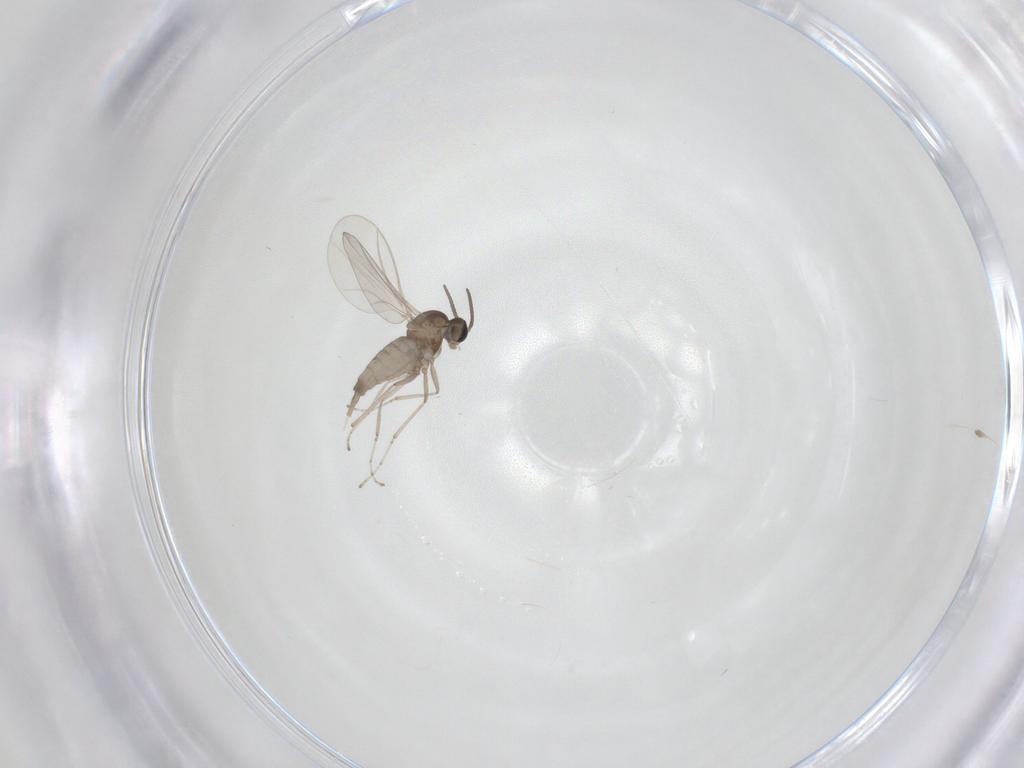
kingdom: Animalia
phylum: Arthropoda
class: Insecta
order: Diptera
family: Cecidomyiidae
